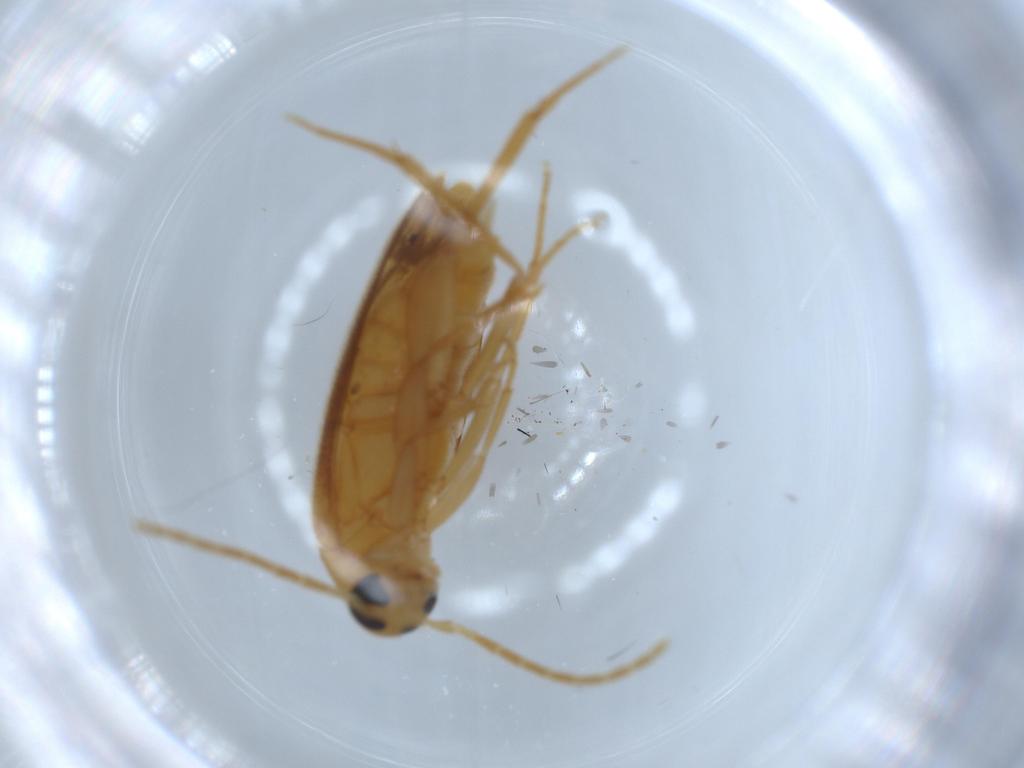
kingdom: Animalia
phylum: Arthropoda
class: Insecta
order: Coleoptera
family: Scraptiidae
